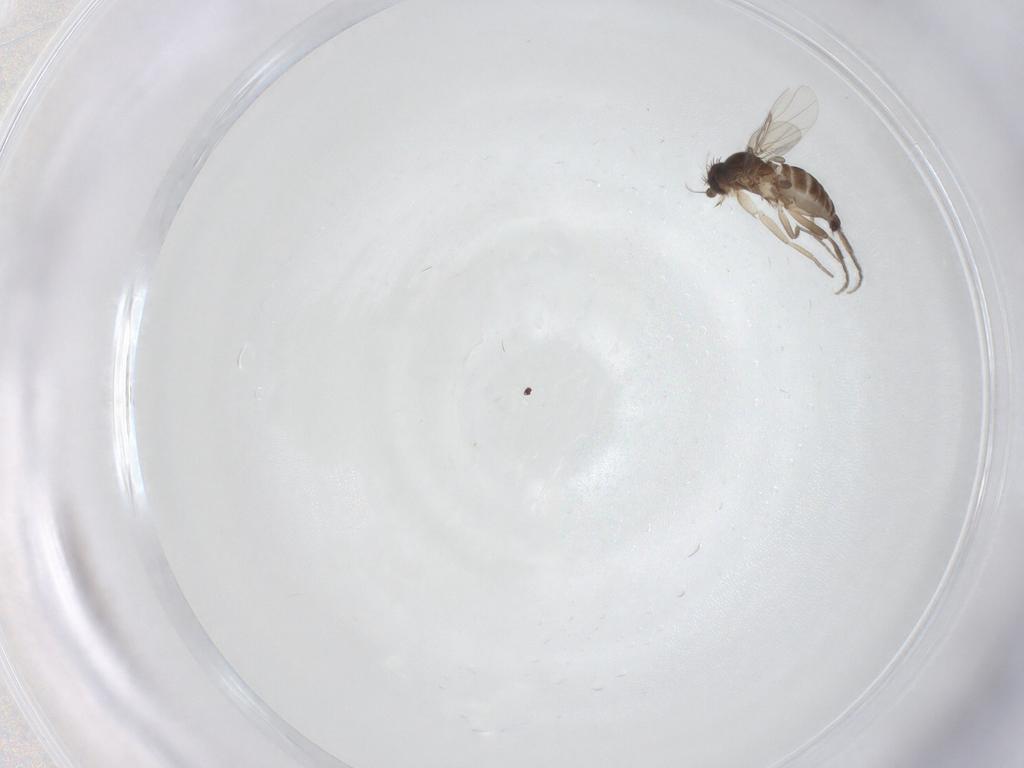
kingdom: Animalia
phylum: Arthropoda
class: Insecta
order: Diptera
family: Phoridae
